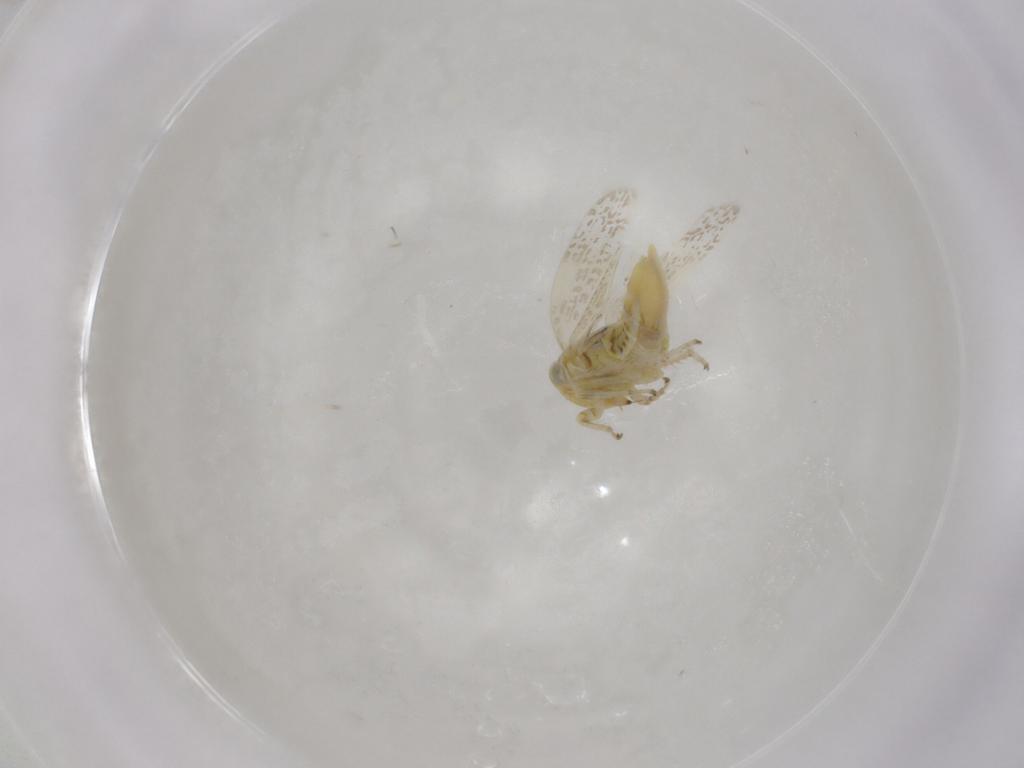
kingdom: Animalia
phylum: Arthropoda
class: Insecta
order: Hemiptera
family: Cicadellidae
